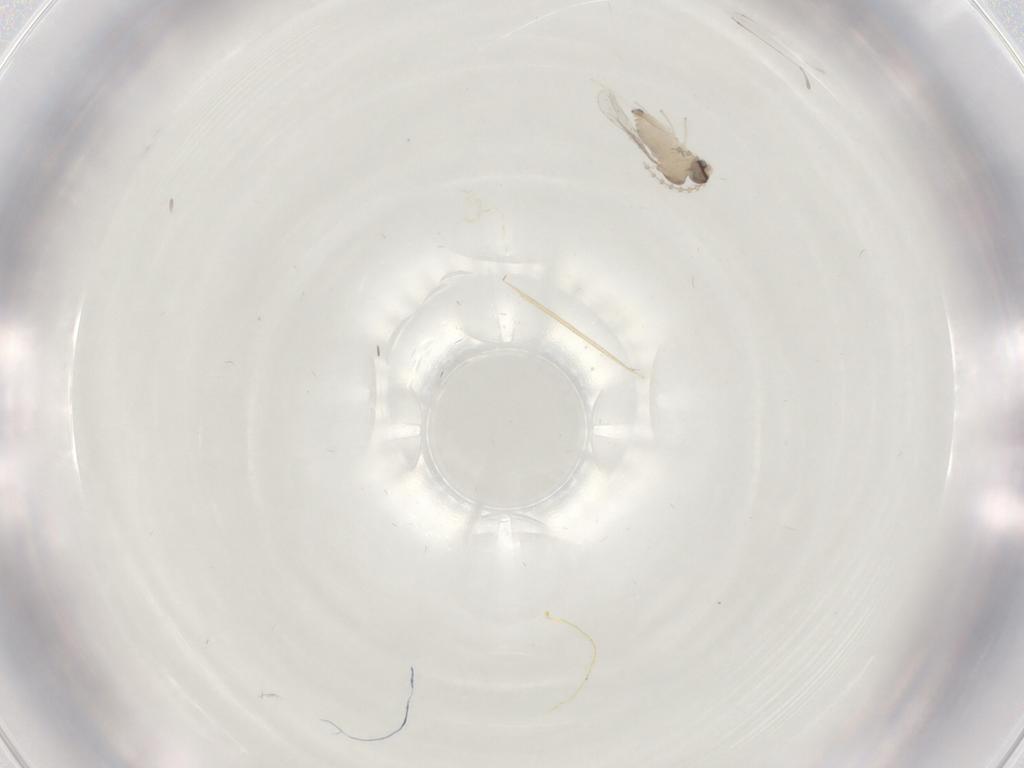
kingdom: Animalia
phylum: Arthropoda
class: Insecta
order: Diptera
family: Cecidomyiidae
